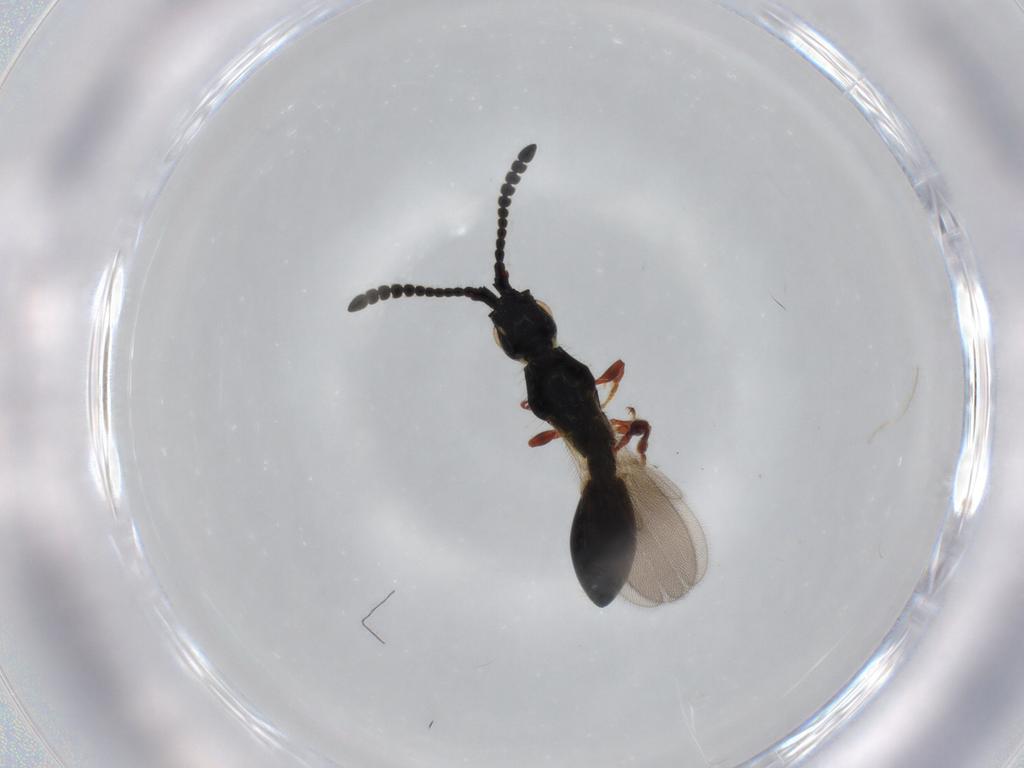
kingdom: Animalia
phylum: Arthropoda
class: Insecta
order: Hymenoptera
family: Diapriidae
